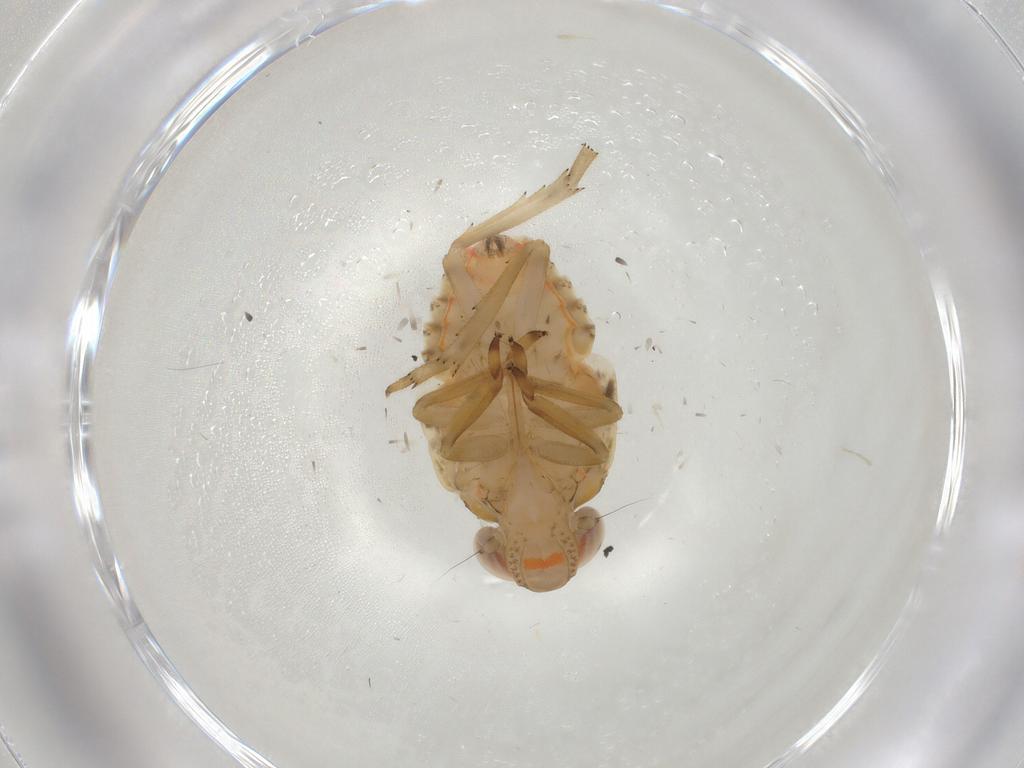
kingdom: Animalia
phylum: Arthropoda
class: Insecta
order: Hemiptera
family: Issidae
